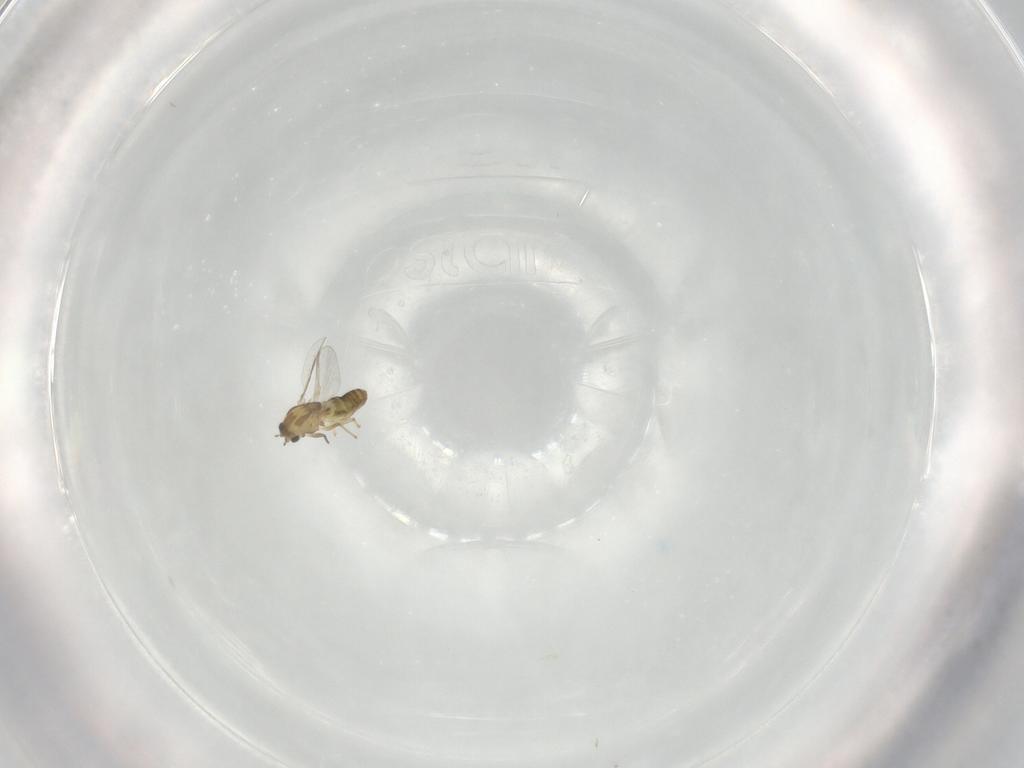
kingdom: Animalia
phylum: Arthropoda
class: Insecta
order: Diptera
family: Chironomidae
